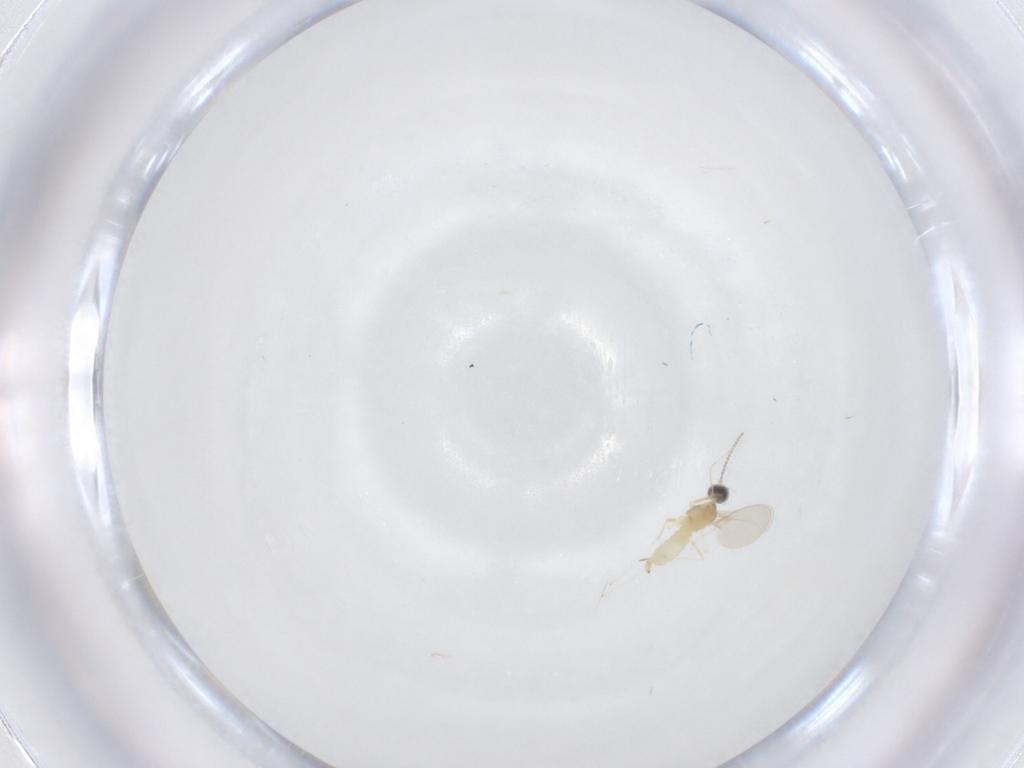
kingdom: Animalia
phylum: Arthropoda
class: Insecta
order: Diptera
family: Cecidomyiidae
